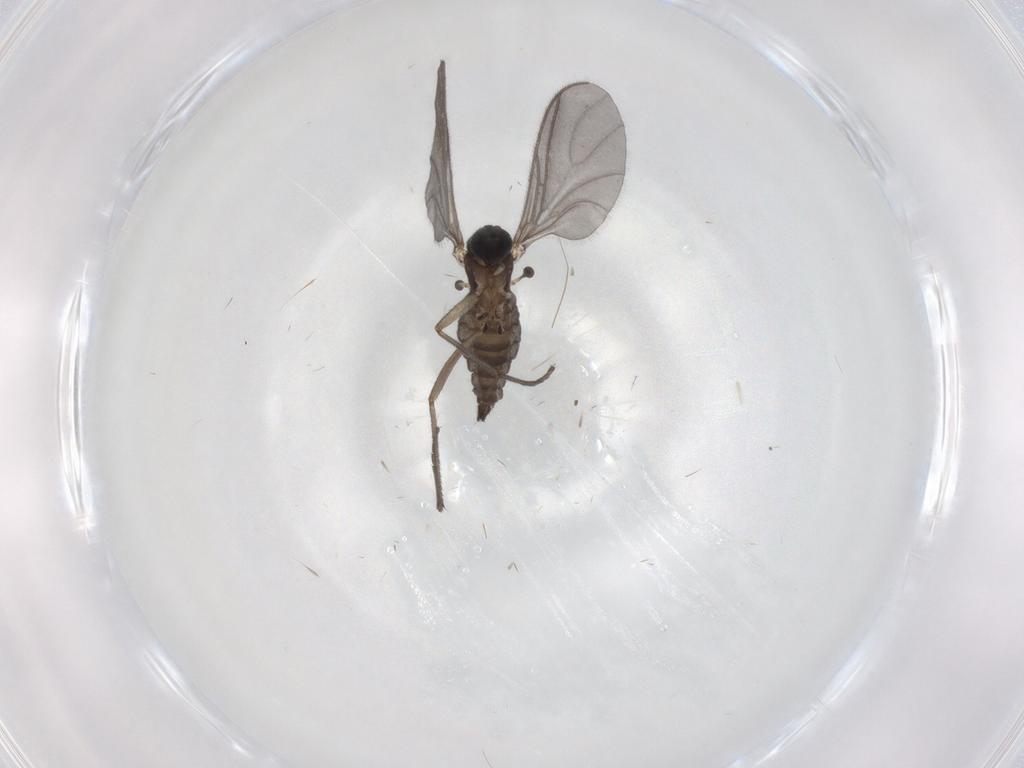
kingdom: Animalia
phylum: Arthropoda
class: Insecta
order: Diptera
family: Sciaridae
